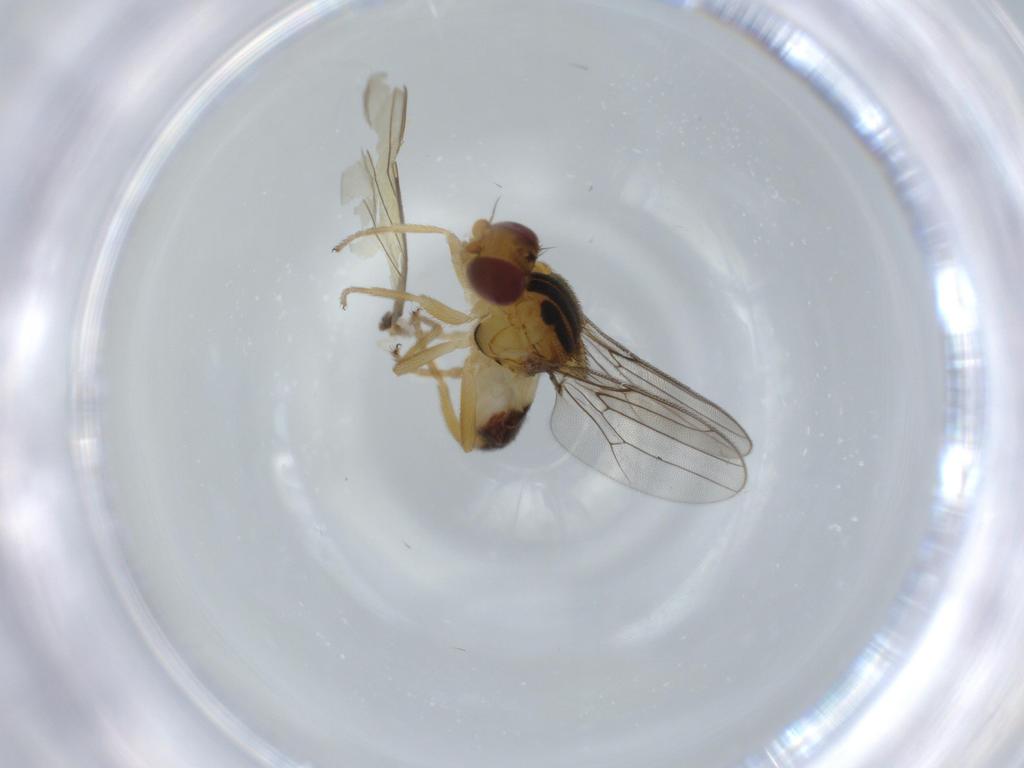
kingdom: Animalia
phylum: Arthropoda
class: Insecta
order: Diptera
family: Chloropidae
